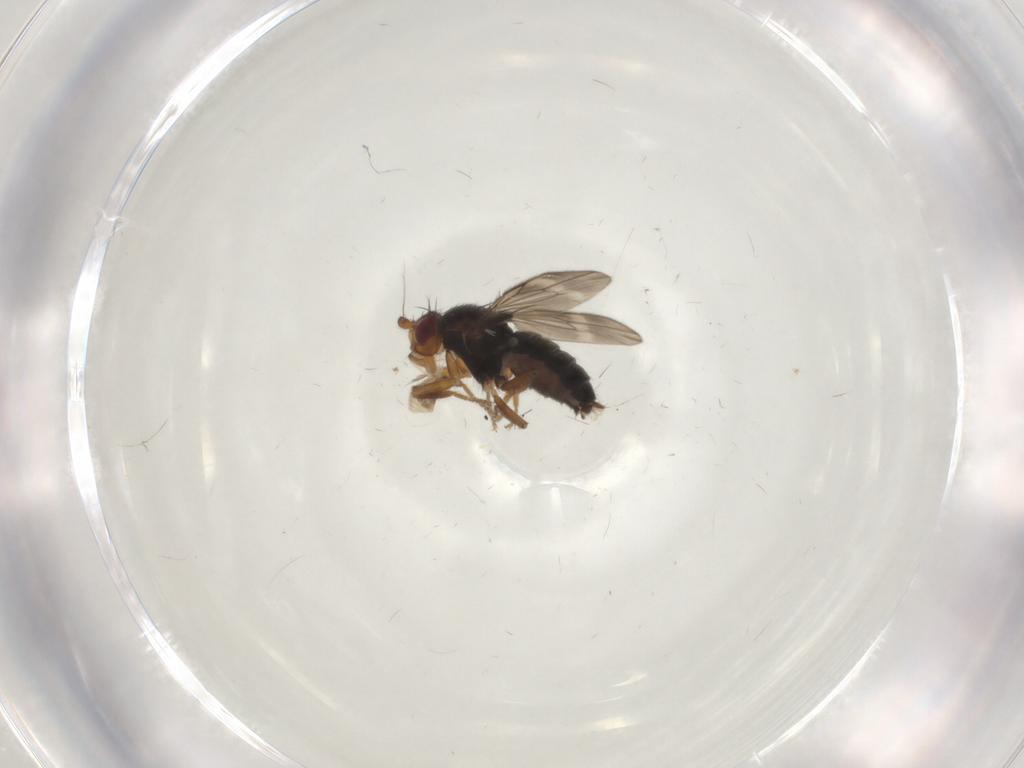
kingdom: Animalia
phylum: Arthropoda
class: Insecta
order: Diptera
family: Sphaeroceridae
